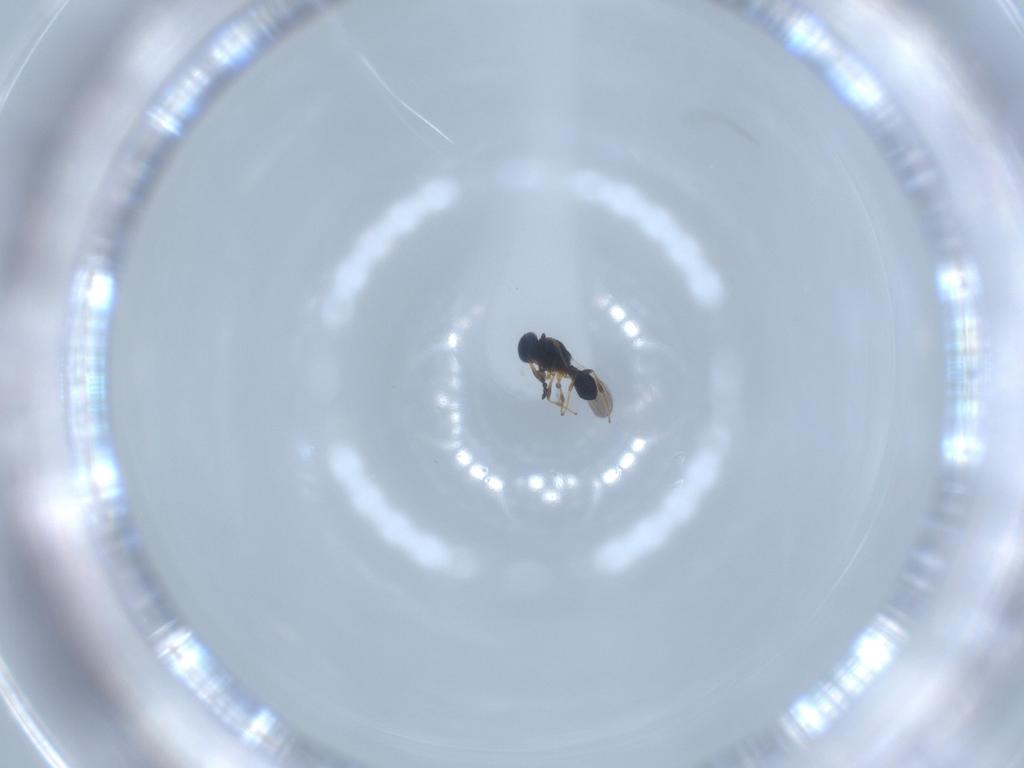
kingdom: Animalia
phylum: Arthropoda
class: Insecta
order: Hymenoptera
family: Platygastridae
